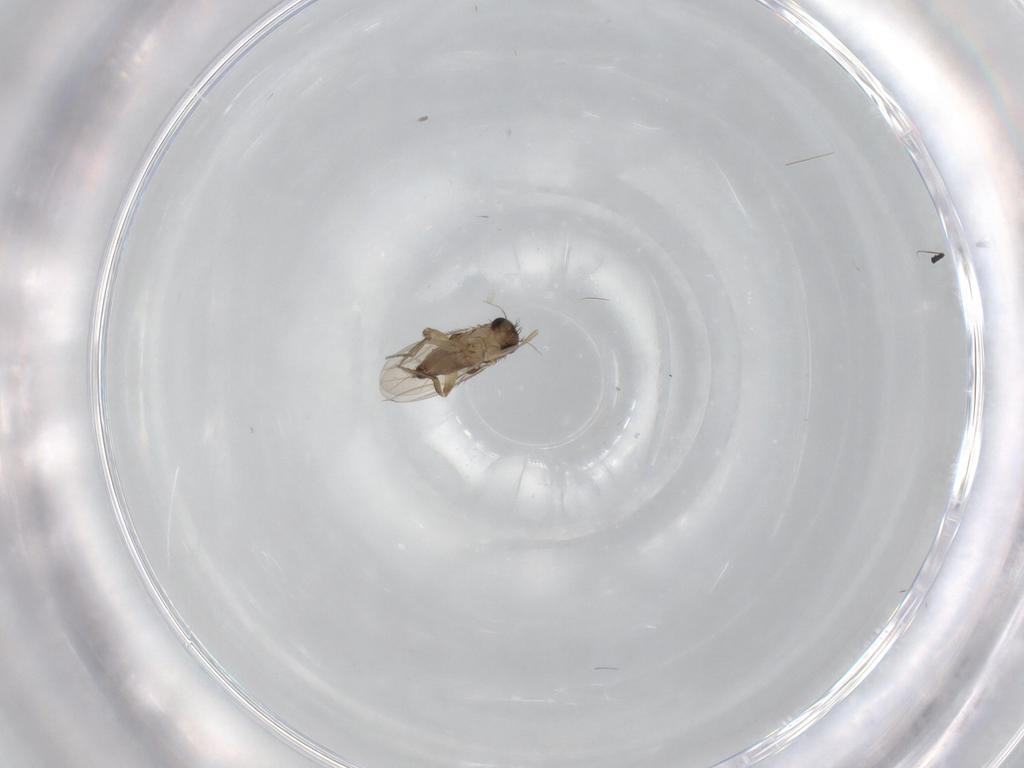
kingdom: Animalia
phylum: Arthropoda
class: Insecta
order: Diptera
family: Phoridae
